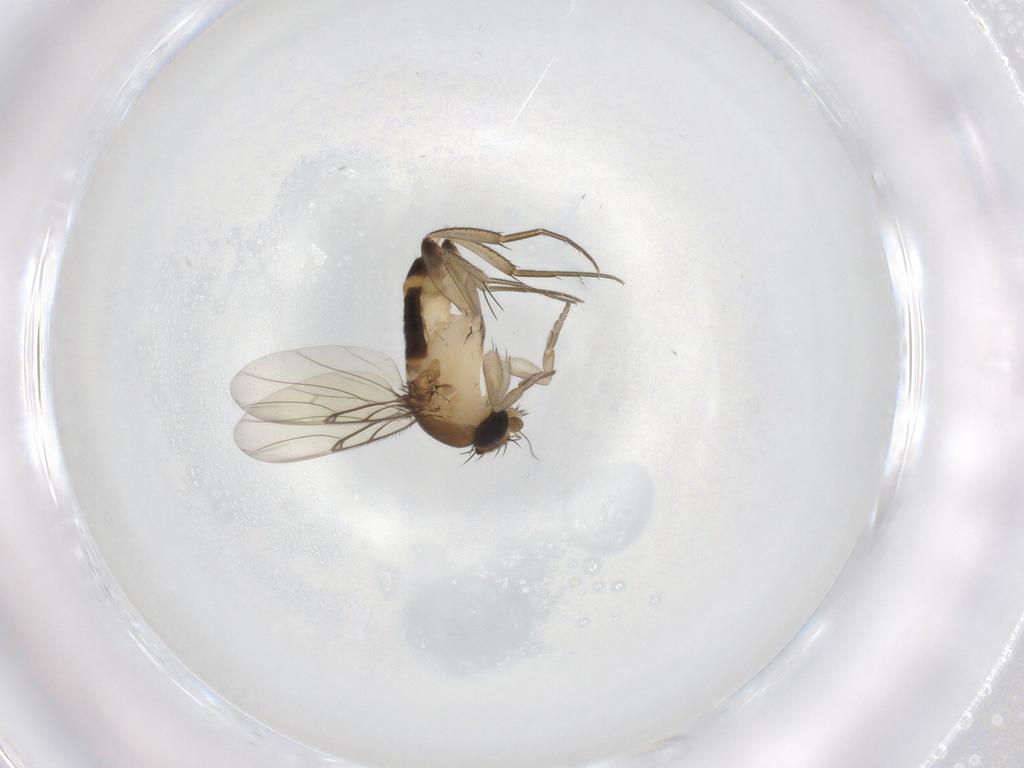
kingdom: Animalia
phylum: Arthropoda
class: Insecta
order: Diptera
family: Phoridae
